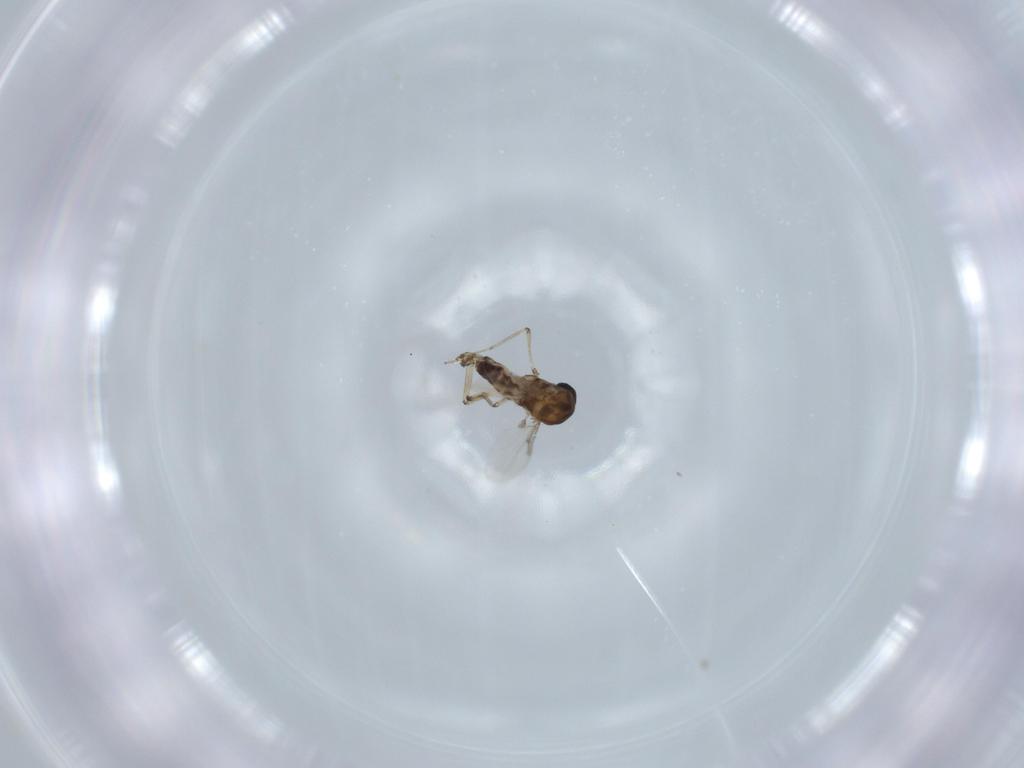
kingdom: Animalia
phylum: Arthropoda
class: Insecta
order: Diptera
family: Ceratopogonidae
